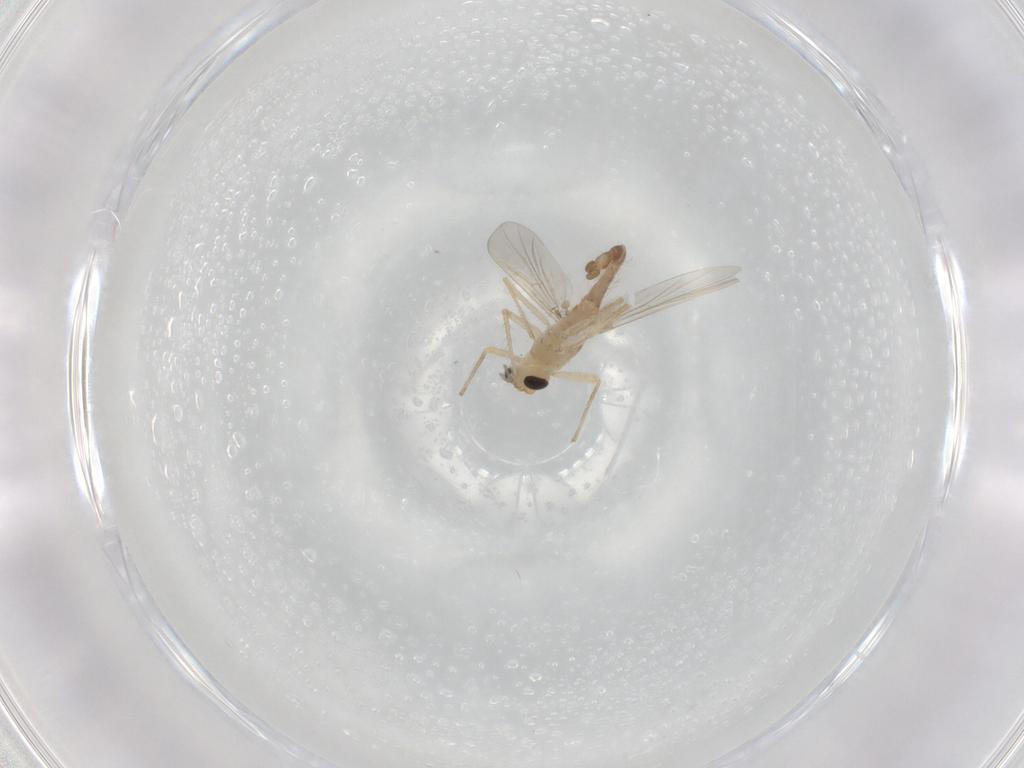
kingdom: Animalia
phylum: Arthropoda
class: Insecta
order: Diptera
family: Chironomidae
